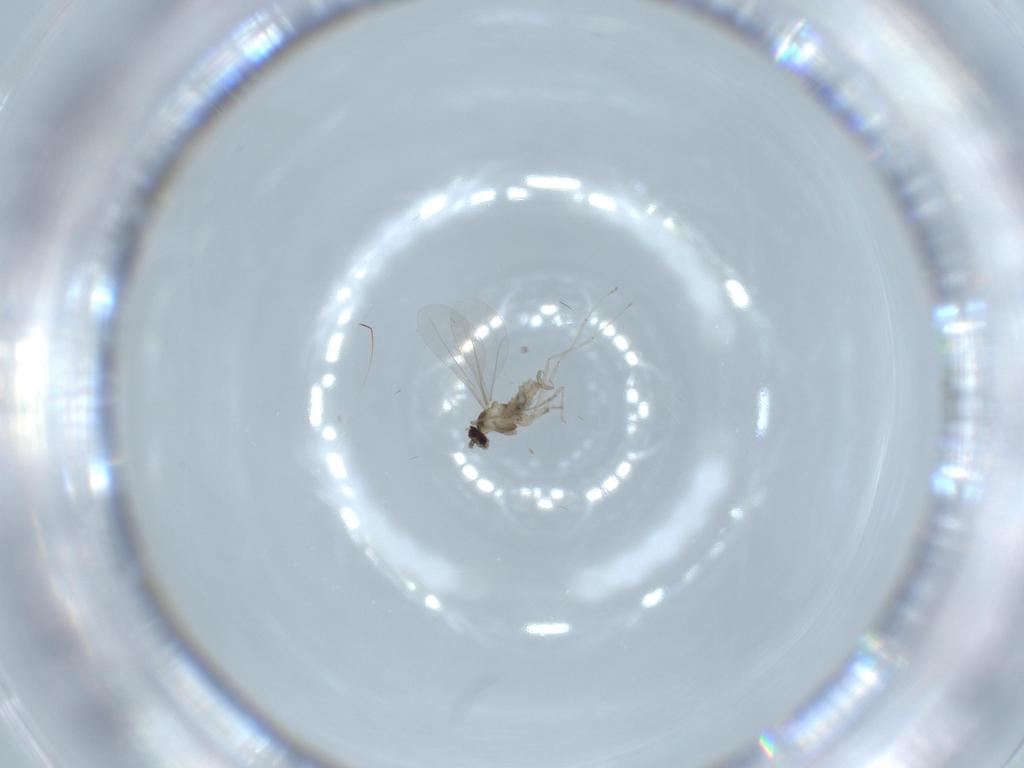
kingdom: Animalia
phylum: Arthropoda
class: Insecta
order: Diptera
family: Cecidomyiidae
